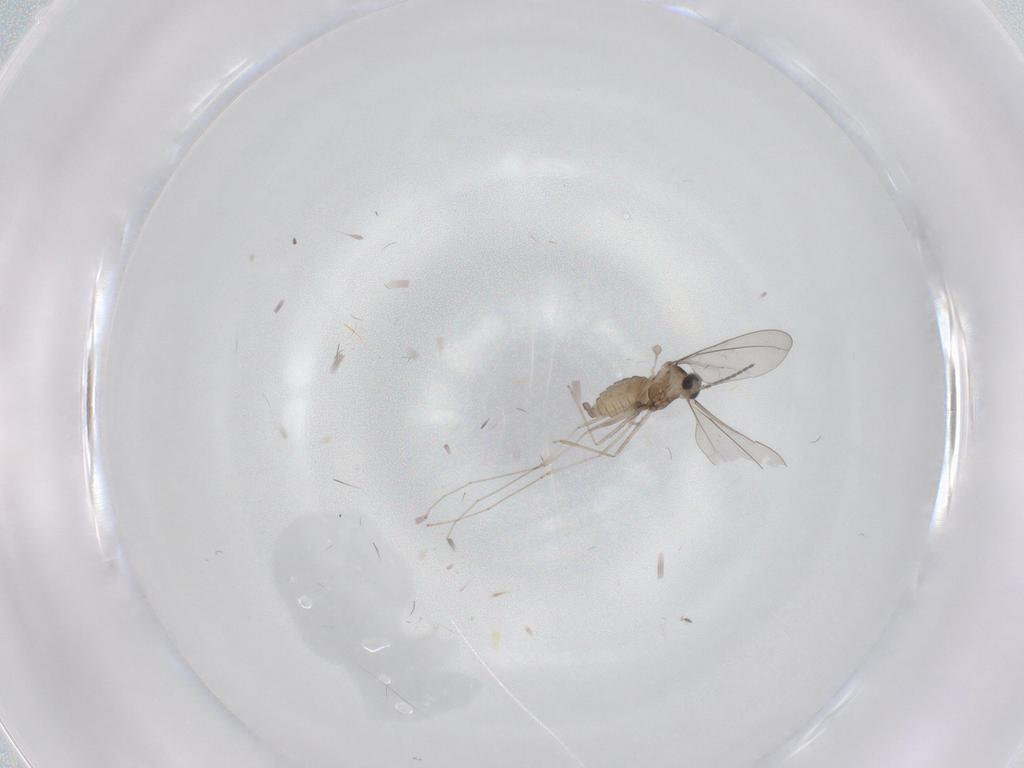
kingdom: Animalia
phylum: Arthropoda
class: Insecta
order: Diptera
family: Cecidomyiidae
